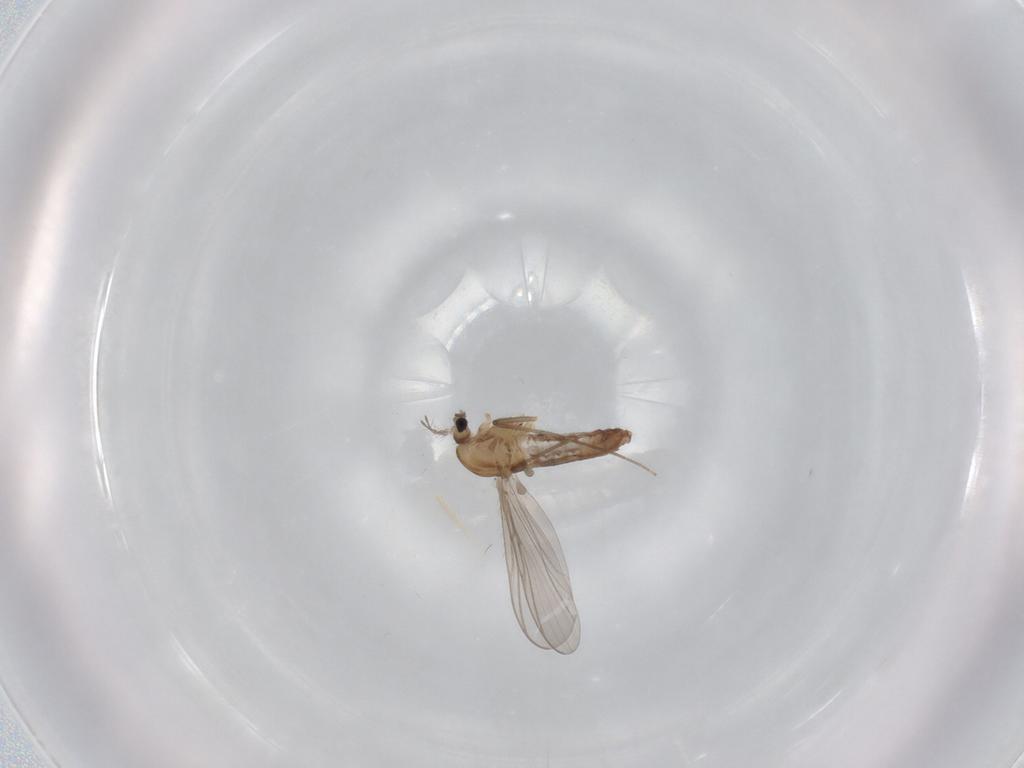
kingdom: Animalia
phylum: Arthropoda
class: Insecta
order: Diptera
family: Chironomidae
